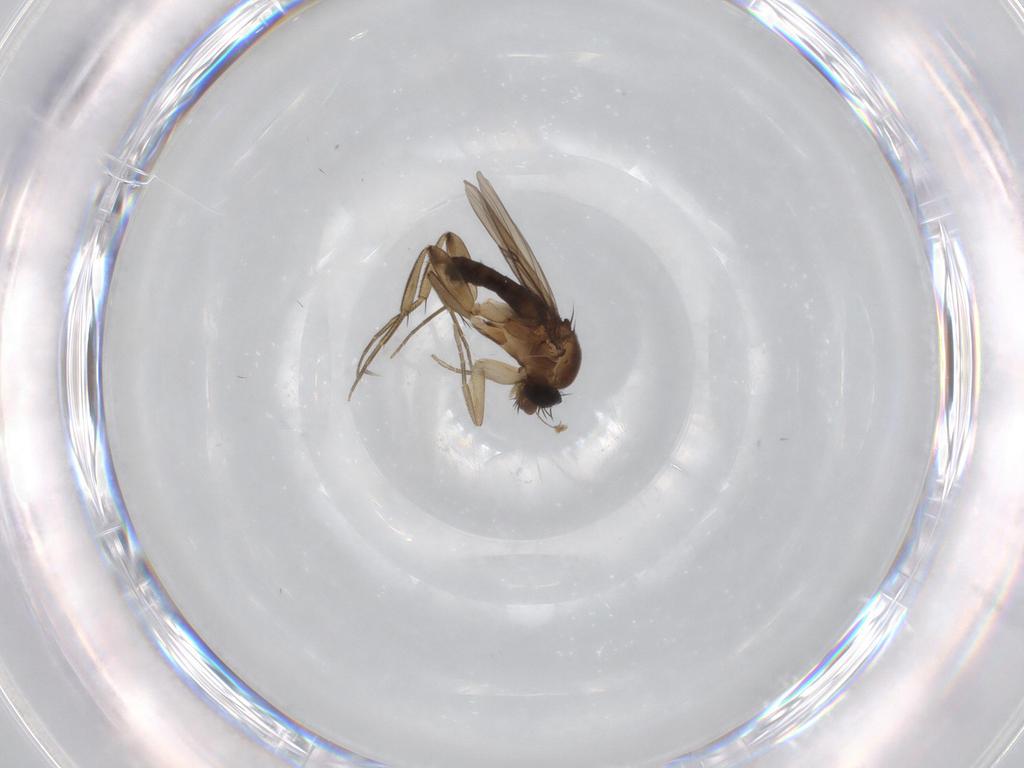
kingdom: Animalia
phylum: Arthropoda
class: Insecta
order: Diptera
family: Phoridae
